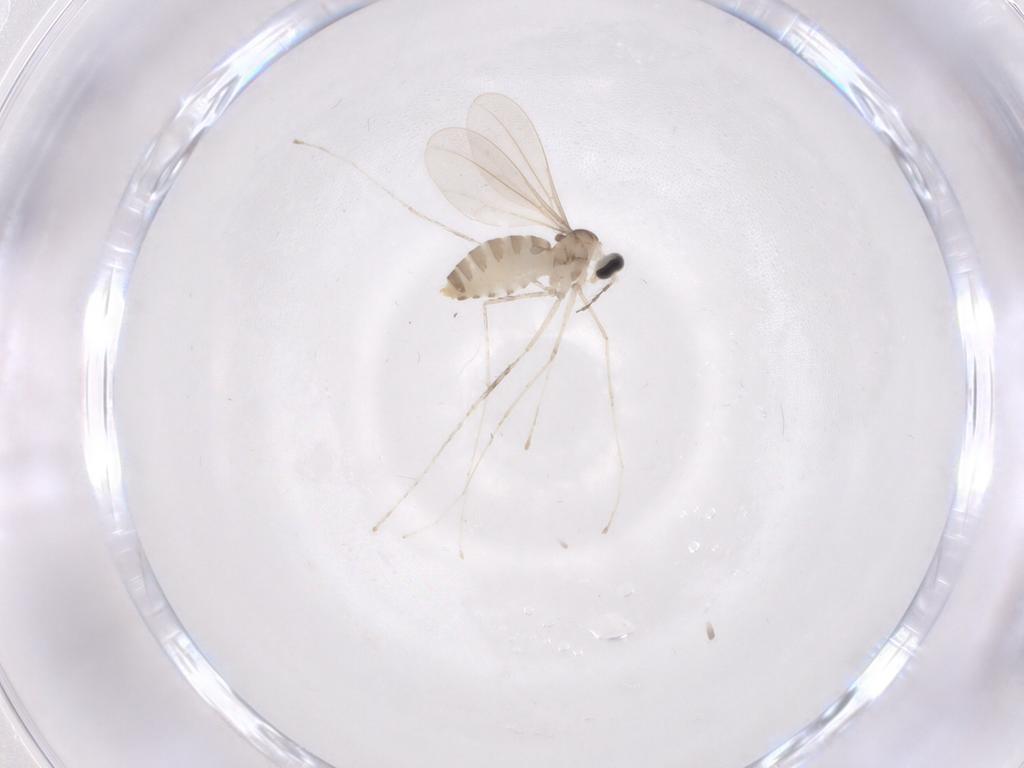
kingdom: Animalia
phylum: Arthropoda
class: Insecta
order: Diptera
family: Cecidomyiidae
